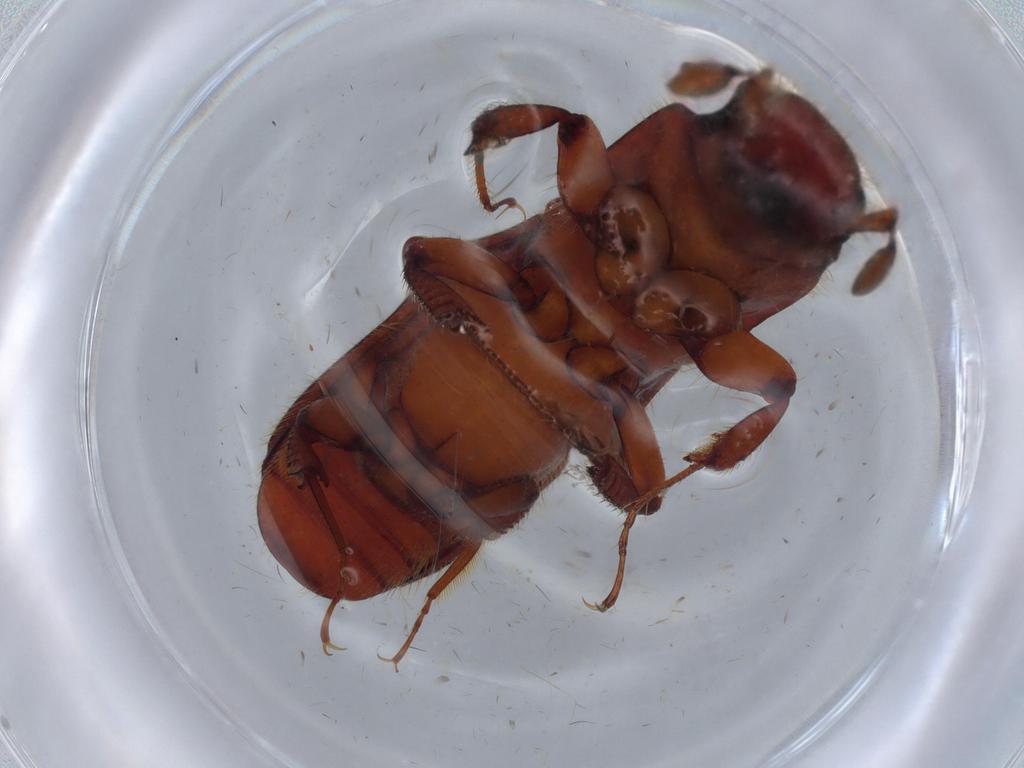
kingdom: Animalia
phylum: Arthropoda
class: Insecta
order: Coleoptera
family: Curculionidae
